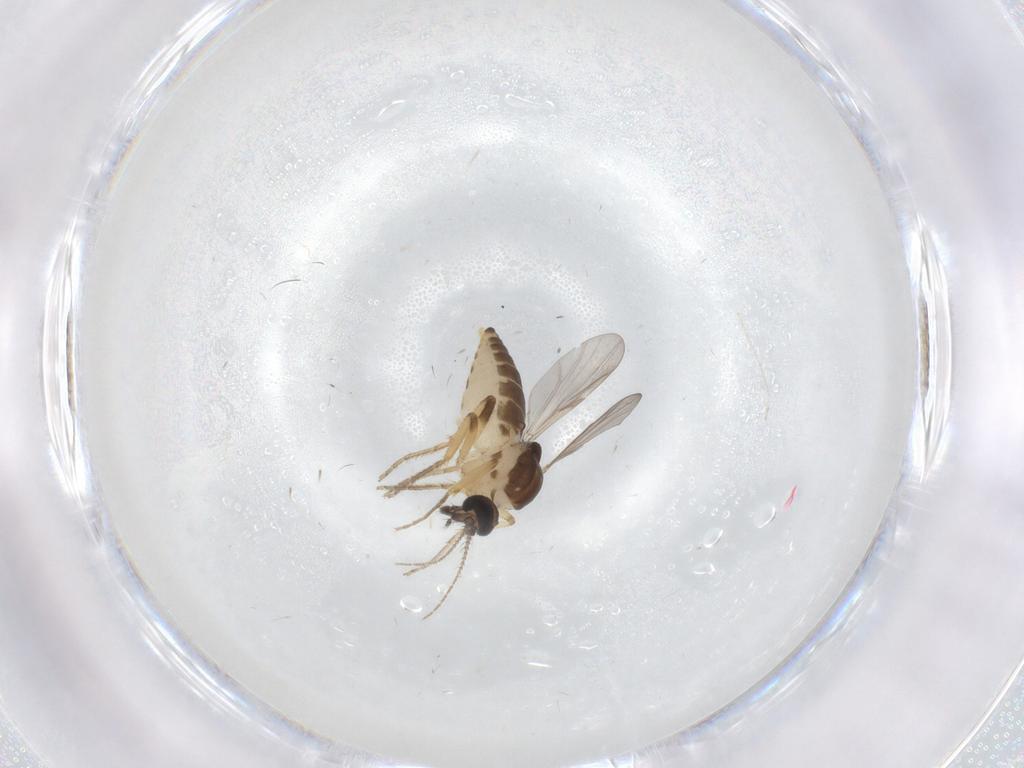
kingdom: Animalia
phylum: Arthropoda
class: Insecta
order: Diptera
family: Ceratopogonidae
